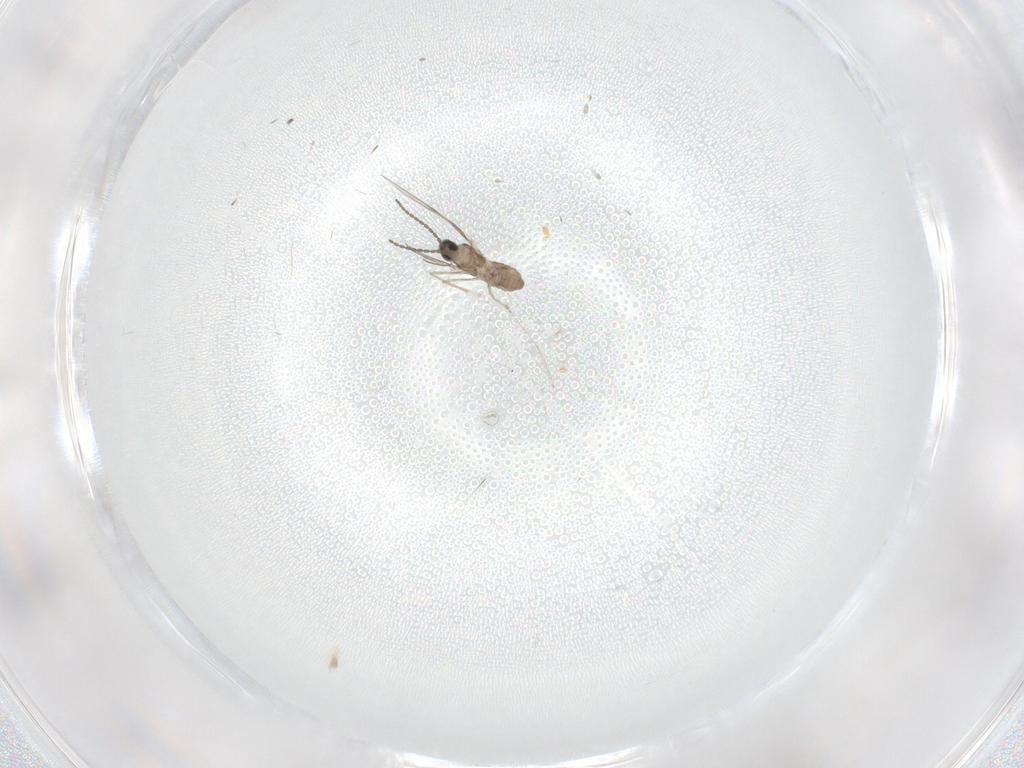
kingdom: Animalia
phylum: Arthropoda
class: Insecta
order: Diptera
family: Cecidomyiidae
